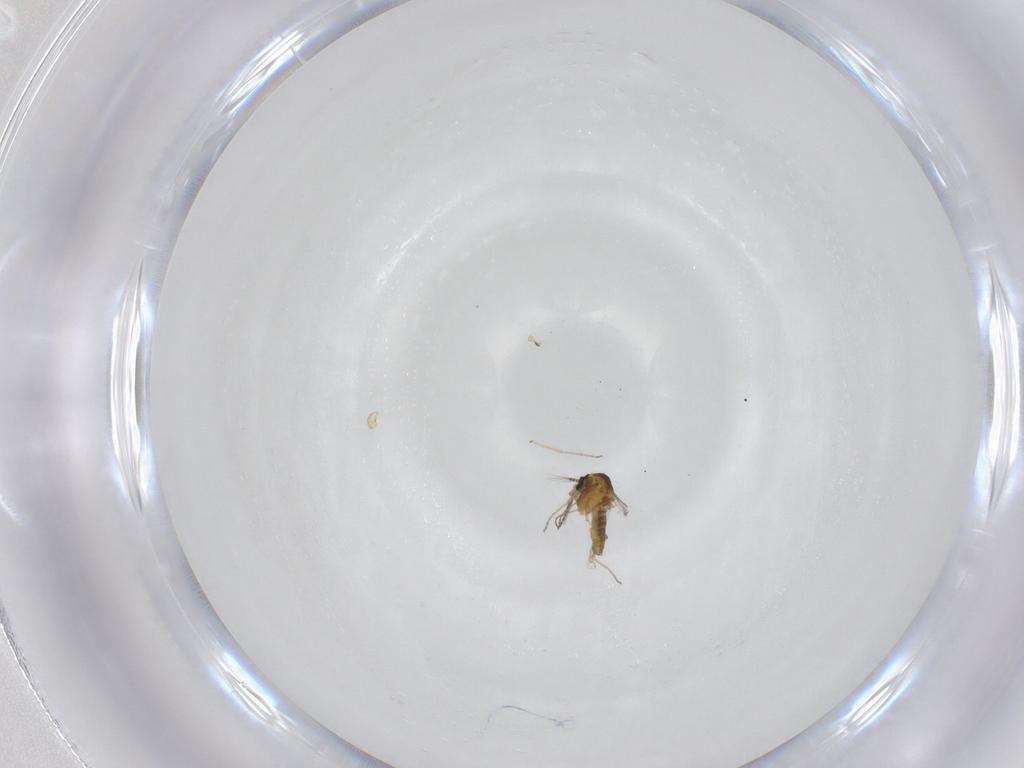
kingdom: Animalia
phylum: Arthropoda
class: Insecta
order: Diptera
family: Ceratopogonidae
